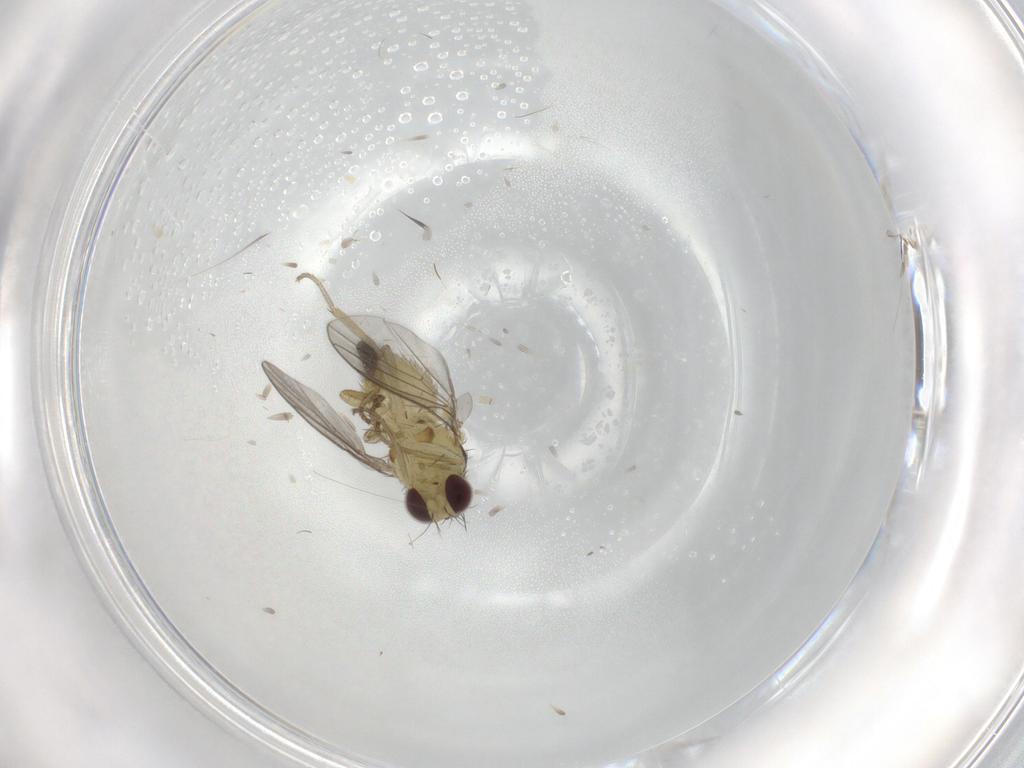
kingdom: Animalia
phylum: Arthropoda
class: Insecta
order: Diptera
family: Agromyzidae
